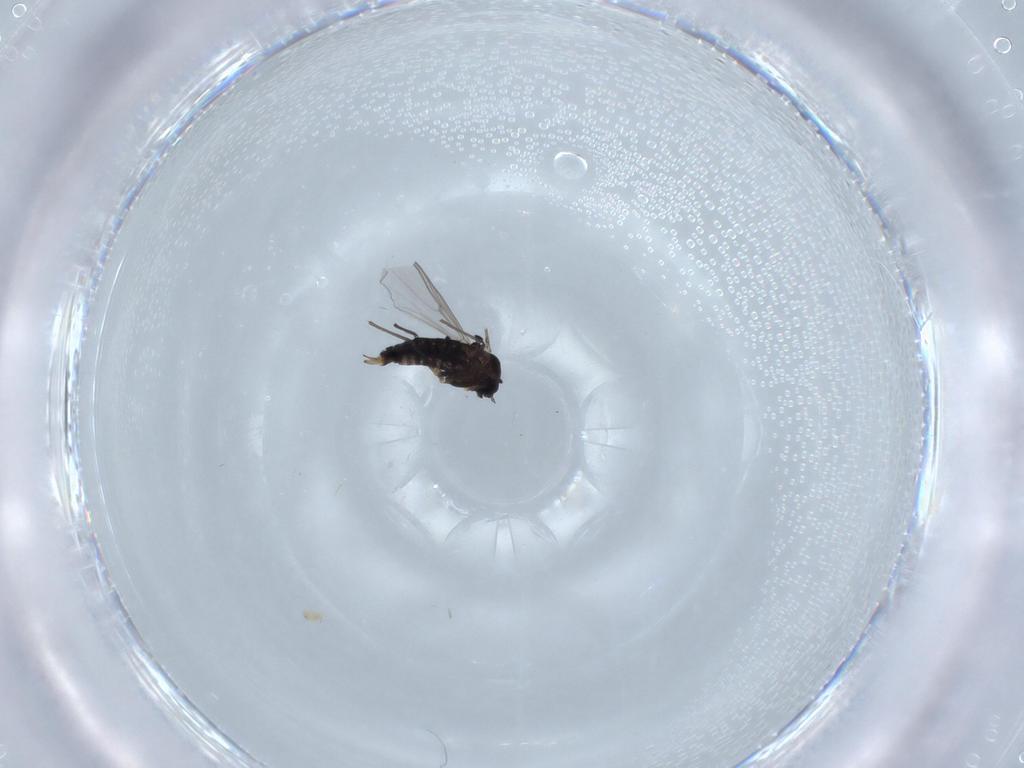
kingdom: Animalia
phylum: Arthropoda
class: Insecta
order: Diptera
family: Chironomidae
